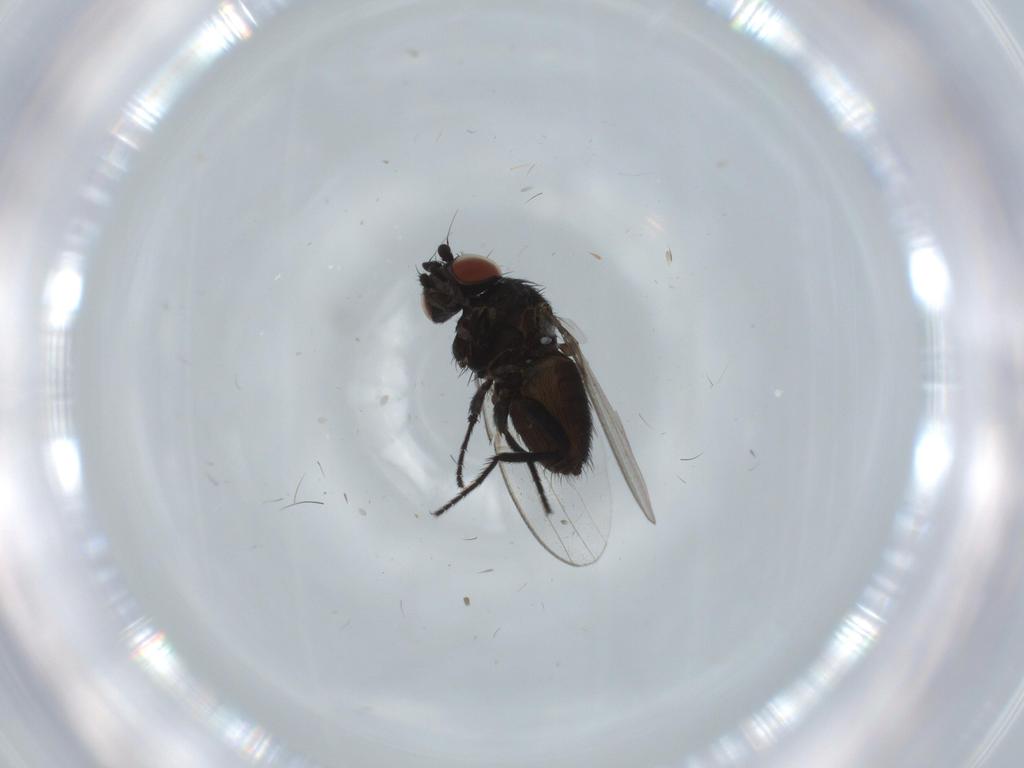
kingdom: Animalia
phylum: Arthropoda
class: Insecta
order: Diptera
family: Milichiidae
